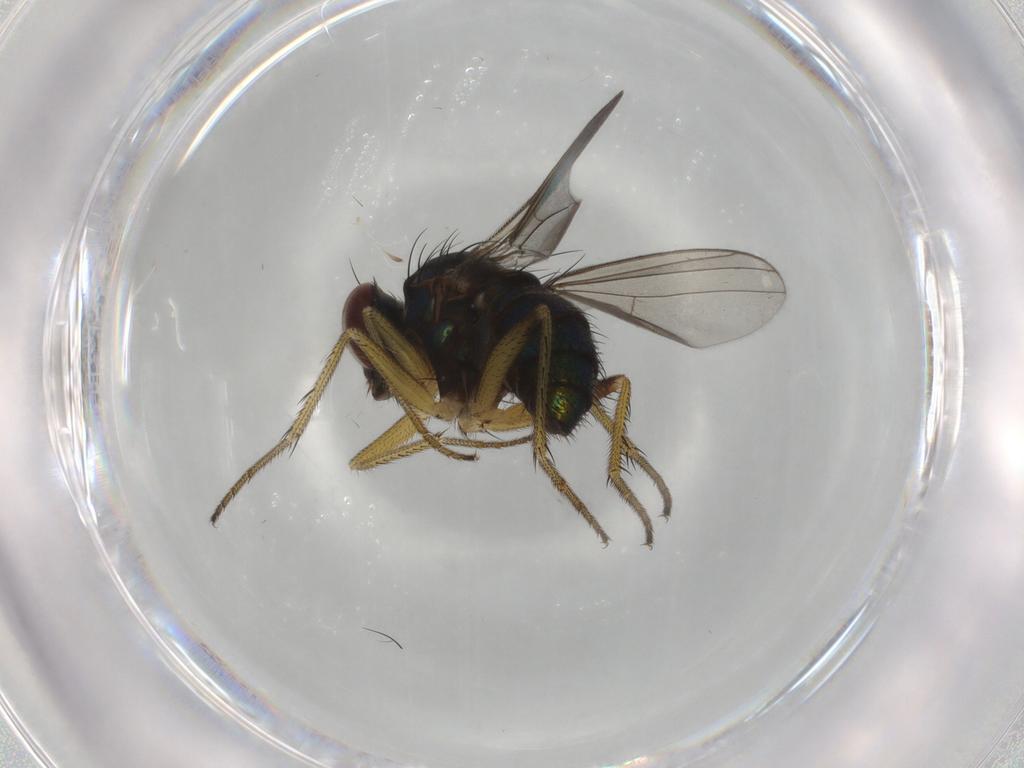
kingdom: Animalia
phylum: Arthropoda
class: Insecta
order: Diptera
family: Dolichopodidae
